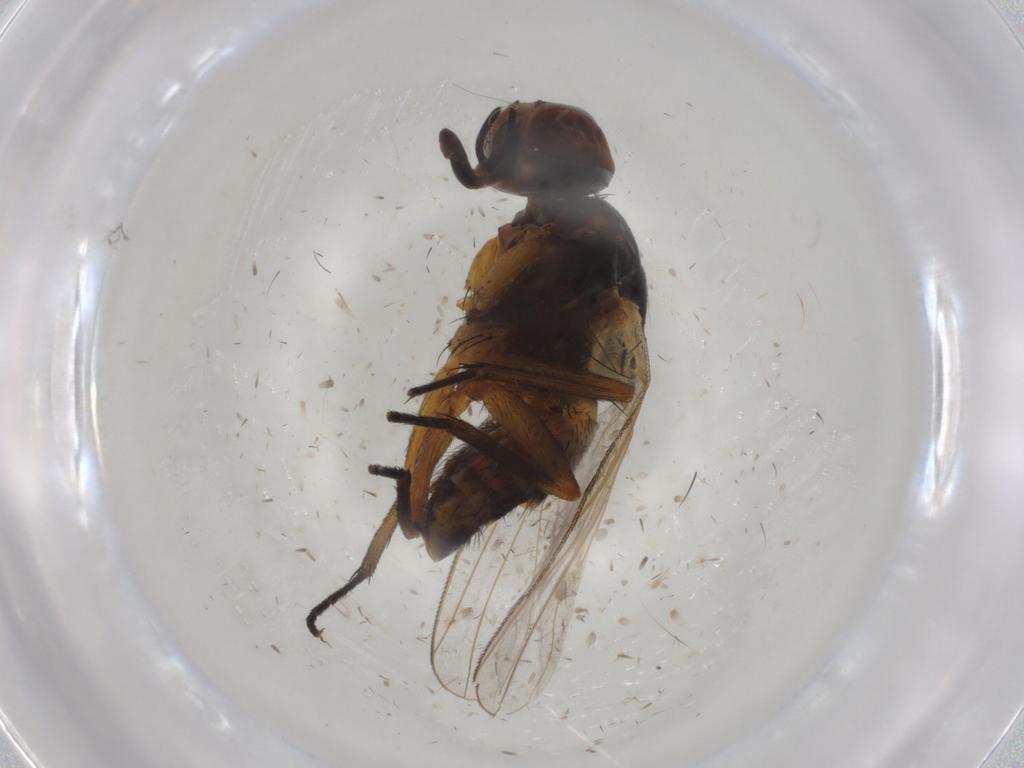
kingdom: Animalia
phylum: Arthropoda
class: Insecta
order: Diptera
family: Muscidae
